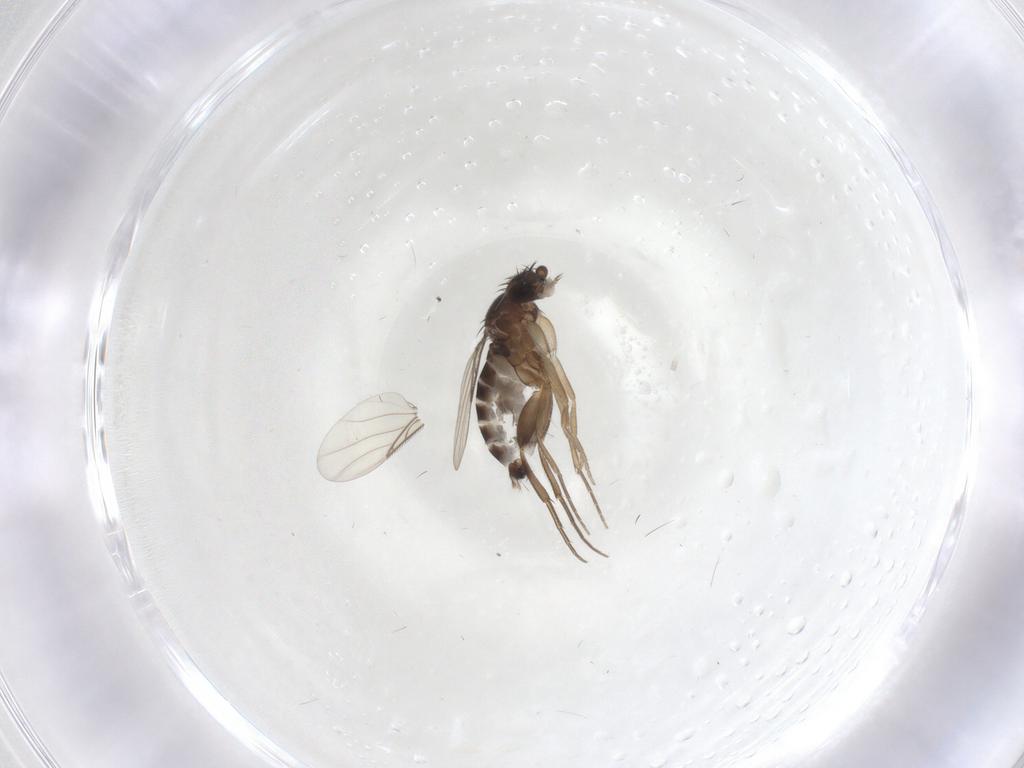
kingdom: Animalia
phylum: Arthropoda
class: Insecta
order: Diptera
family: Phoridae
